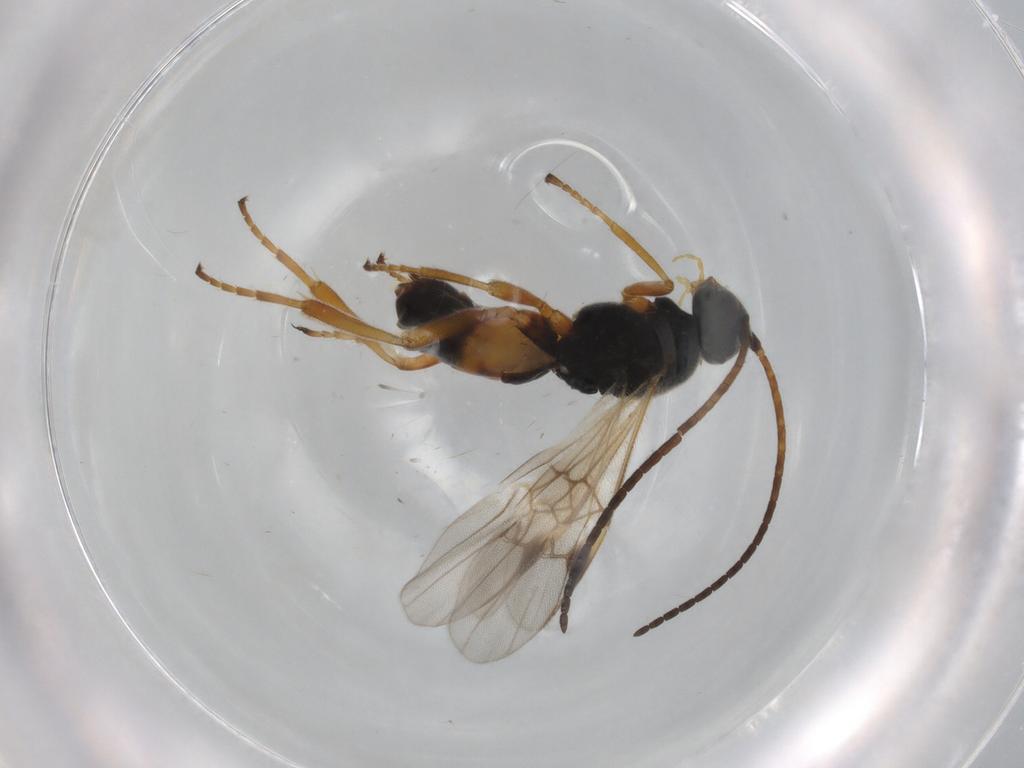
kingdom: Animalia
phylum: Arthropoda
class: Insecta
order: Hymenoptera
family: Braconidae
